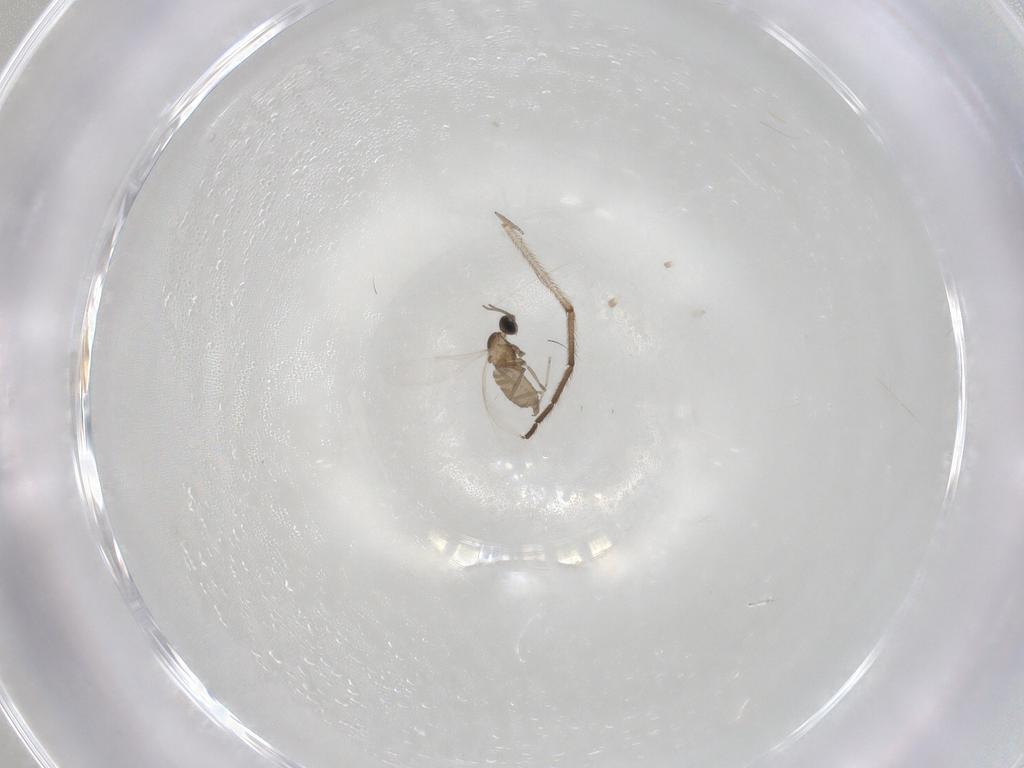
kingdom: Animalia
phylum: Arthropoda
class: Insecta
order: Diptera
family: Cecidomyiidae
